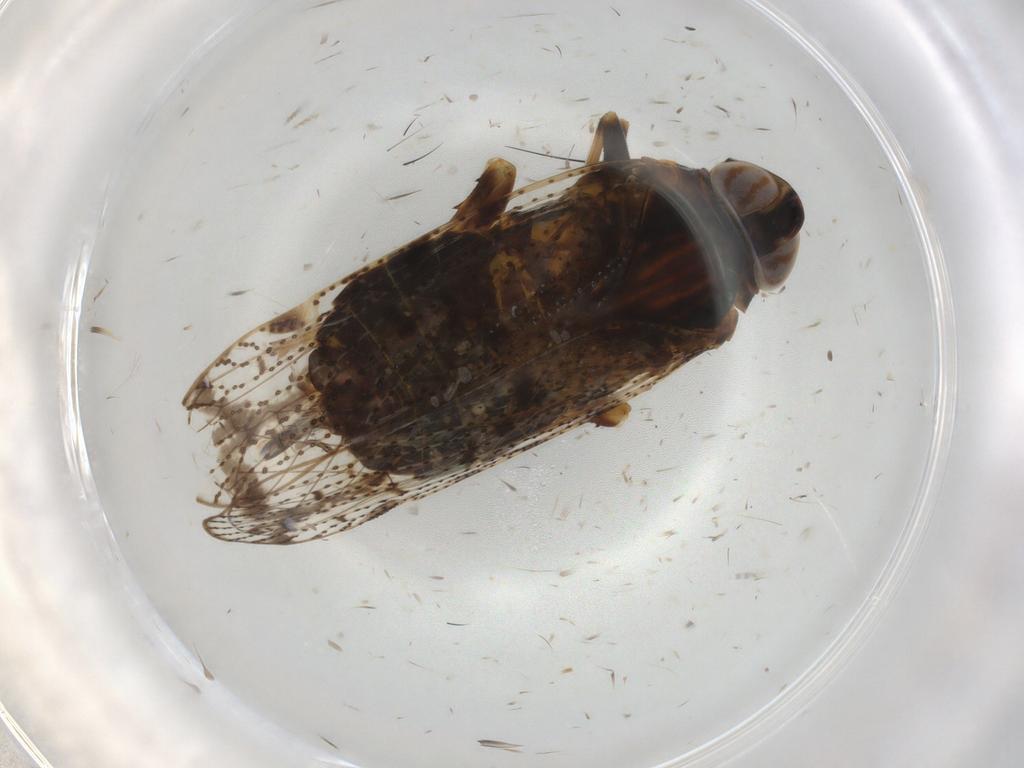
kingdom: Animalia
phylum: Arthropoda
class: Insecta
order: Hemiptera
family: Cixiidae
